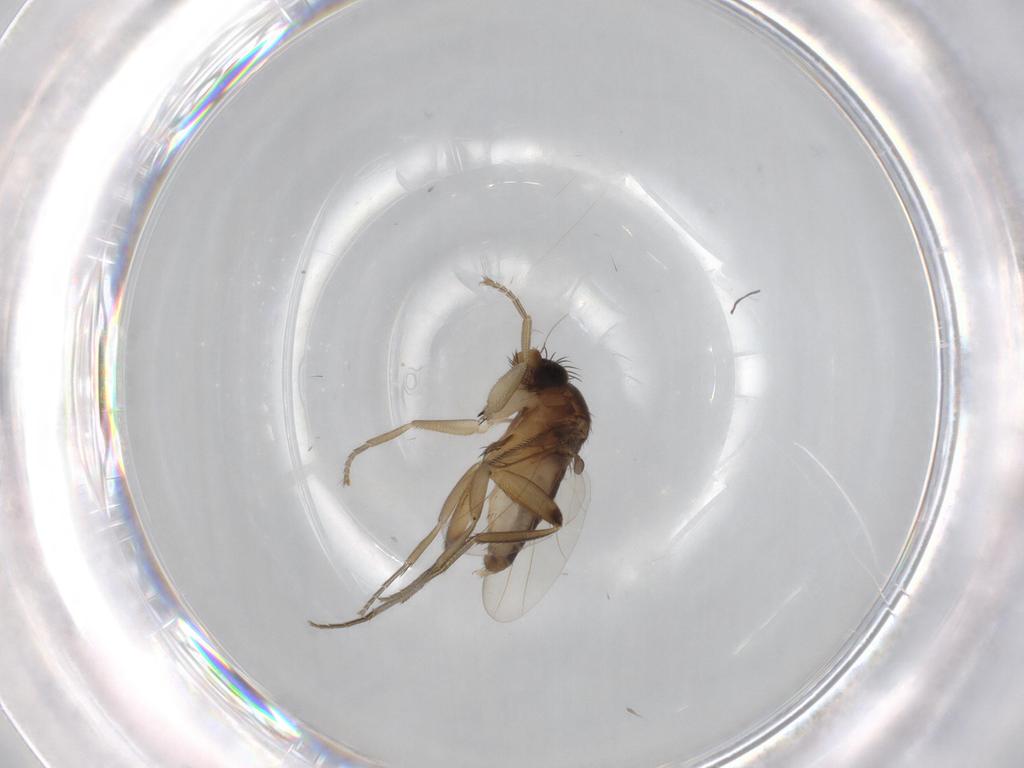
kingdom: Animalia
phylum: Arthropoda
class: Insecta
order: Diptera
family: Phoridae
